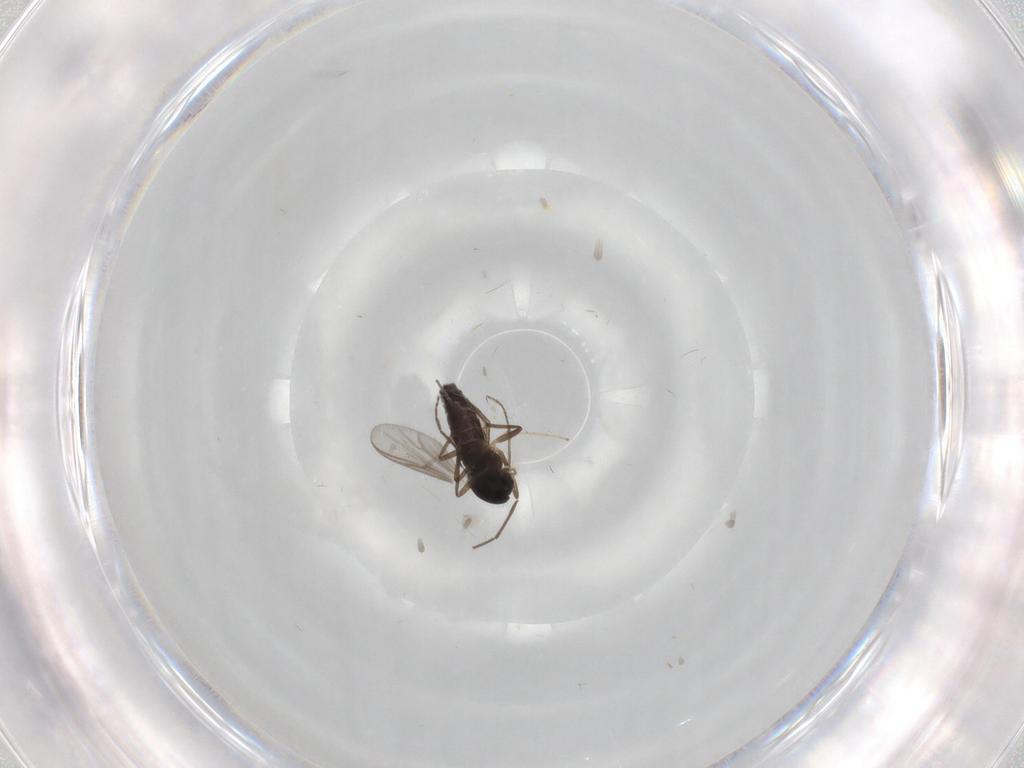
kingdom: Animalia
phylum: Arthropoda
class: Insecta
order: Diptera
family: Chironomidae
